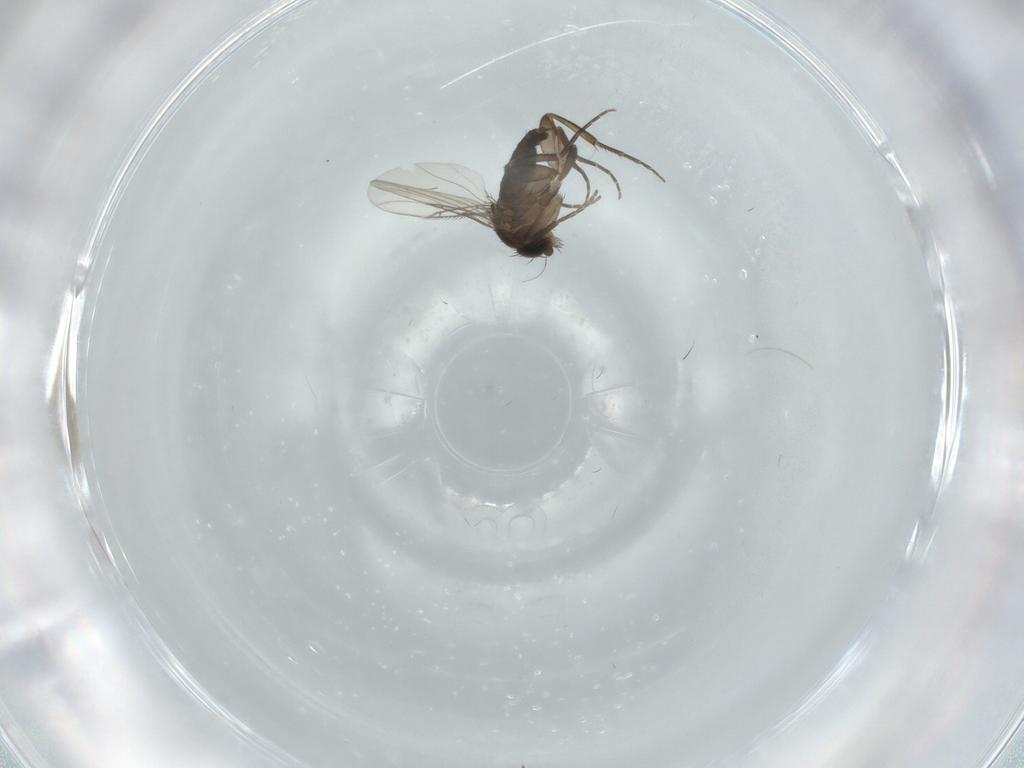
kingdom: Animalia
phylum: Arthropoda
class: Insecta
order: Diptera
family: Phoridae
